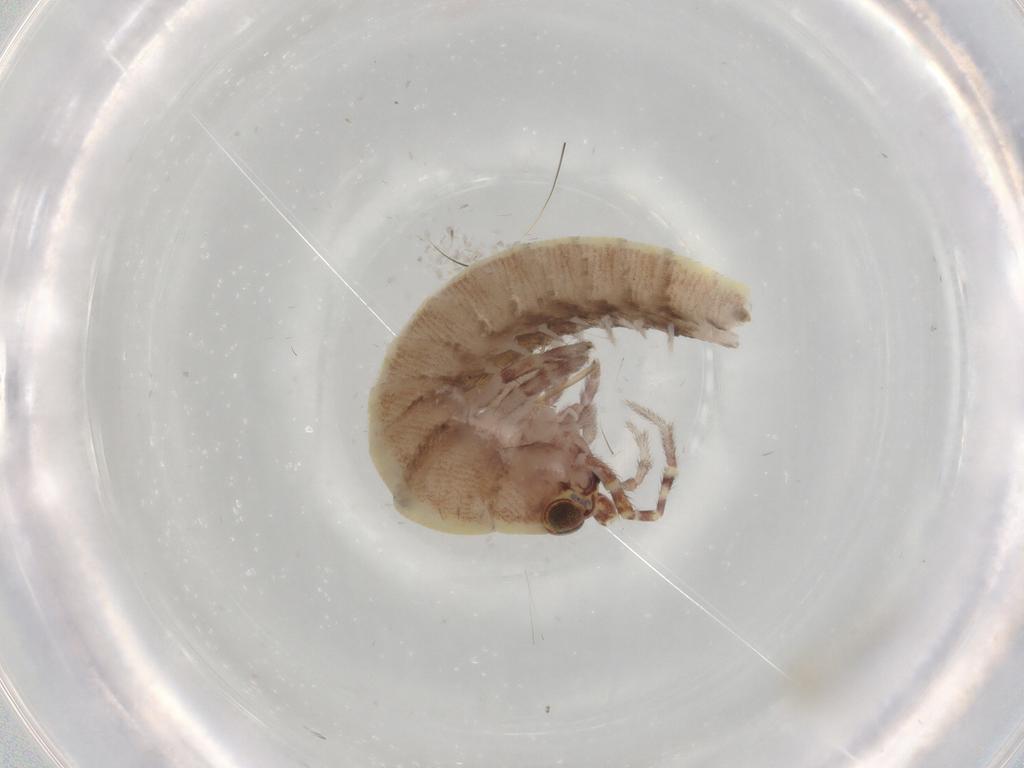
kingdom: Animalia
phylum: Arthropoda
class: Insecta
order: Archaeognatha
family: Machilidae
